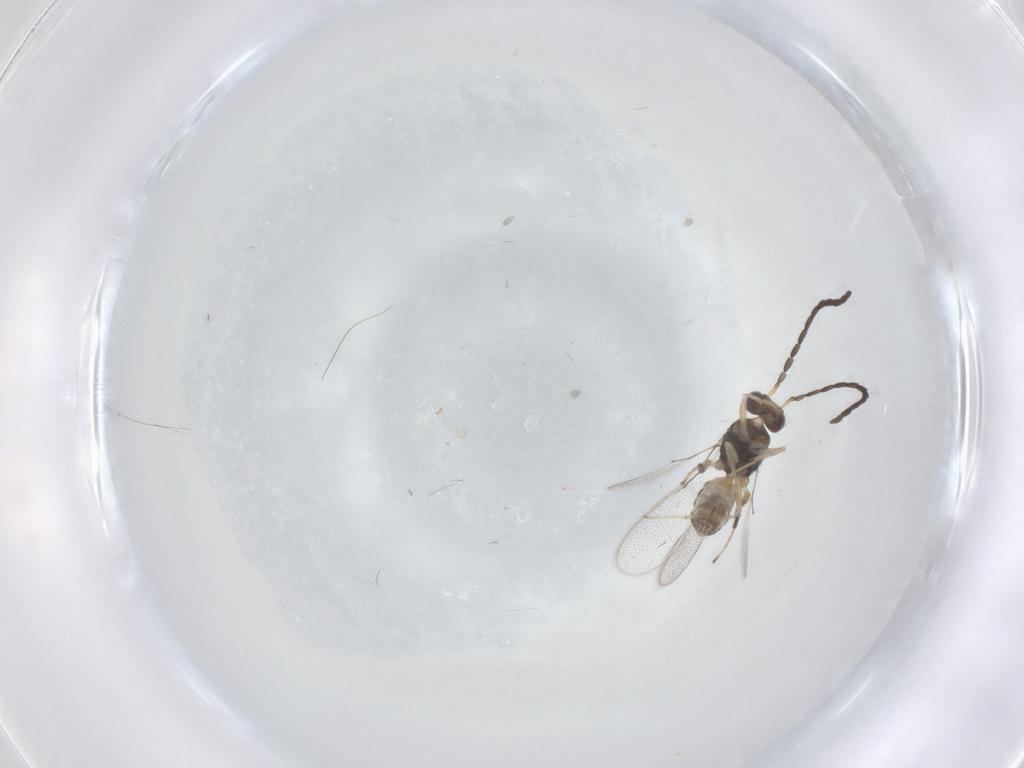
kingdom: Animalia
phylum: Arthropoda
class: Insecta
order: Hymenoptera
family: Mymaridae
